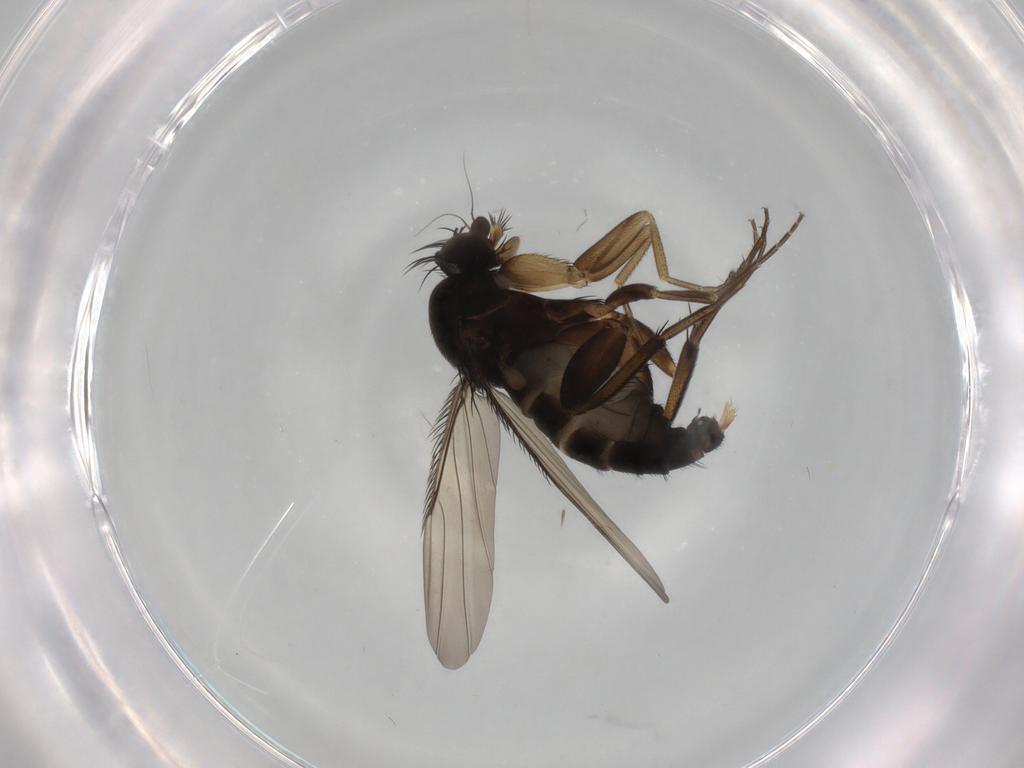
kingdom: Animalia
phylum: Arthropoda
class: Insecta
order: Diptera
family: Phoridae
